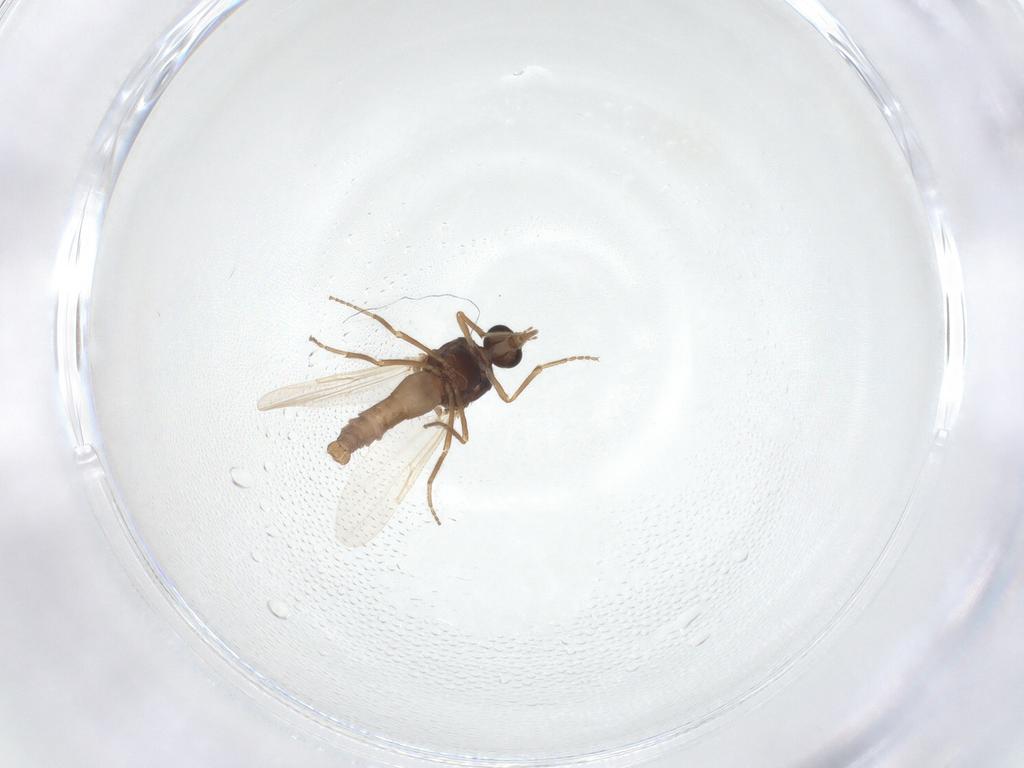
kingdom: Animalia
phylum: Arthropoda
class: Insecta
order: Diptera
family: Ceratopogonidae
